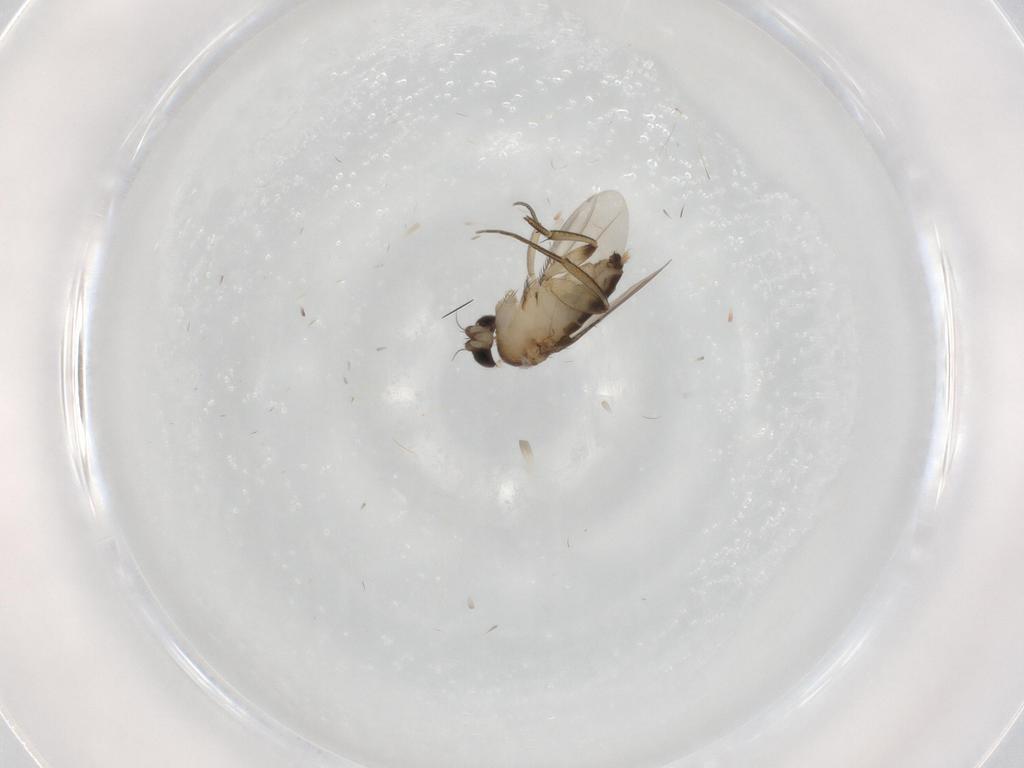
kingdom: Animalia
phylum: Arthropoda
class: Insecta
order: Diptera
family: Phoridae
